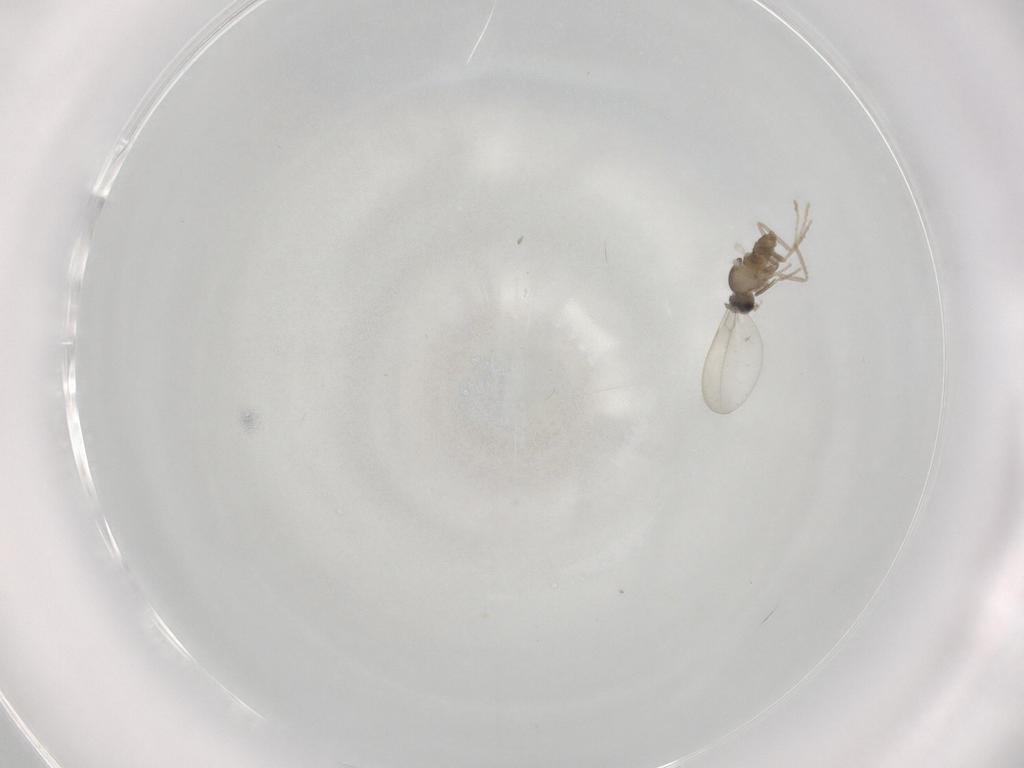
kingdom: Animalia
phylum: Arthropoda
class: Insecta
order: Diptera
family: Cecidomyiidae
